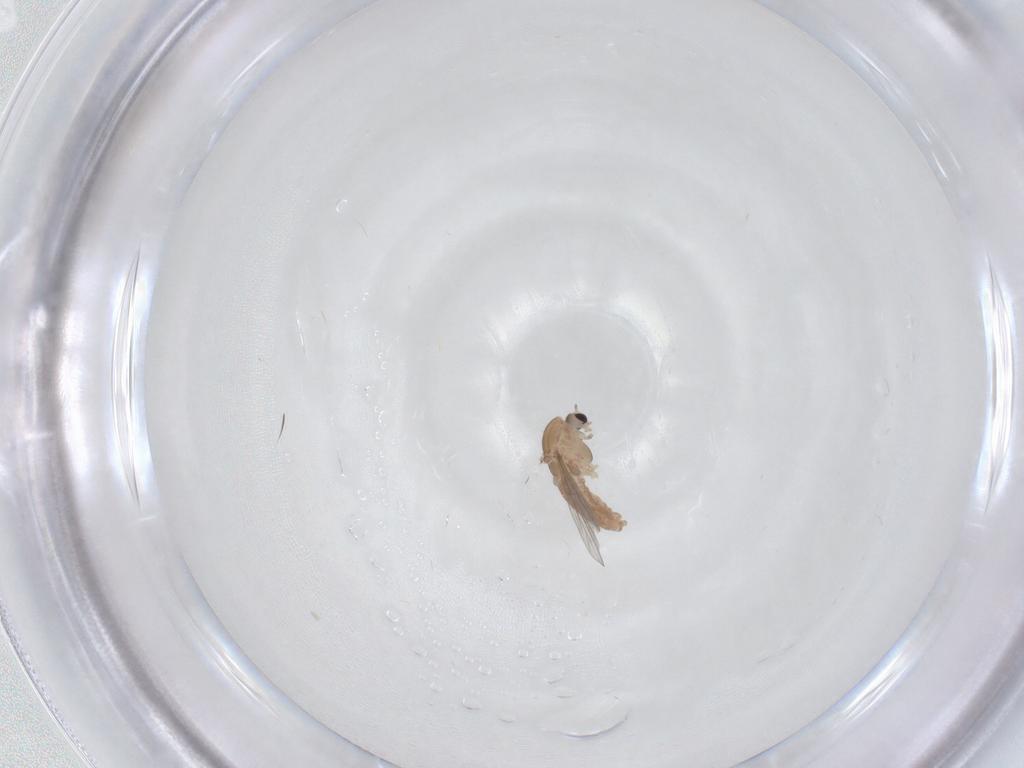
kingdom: Animalia
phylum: Arthropoda
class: Insecta
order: Diptera
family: Chironomidae
